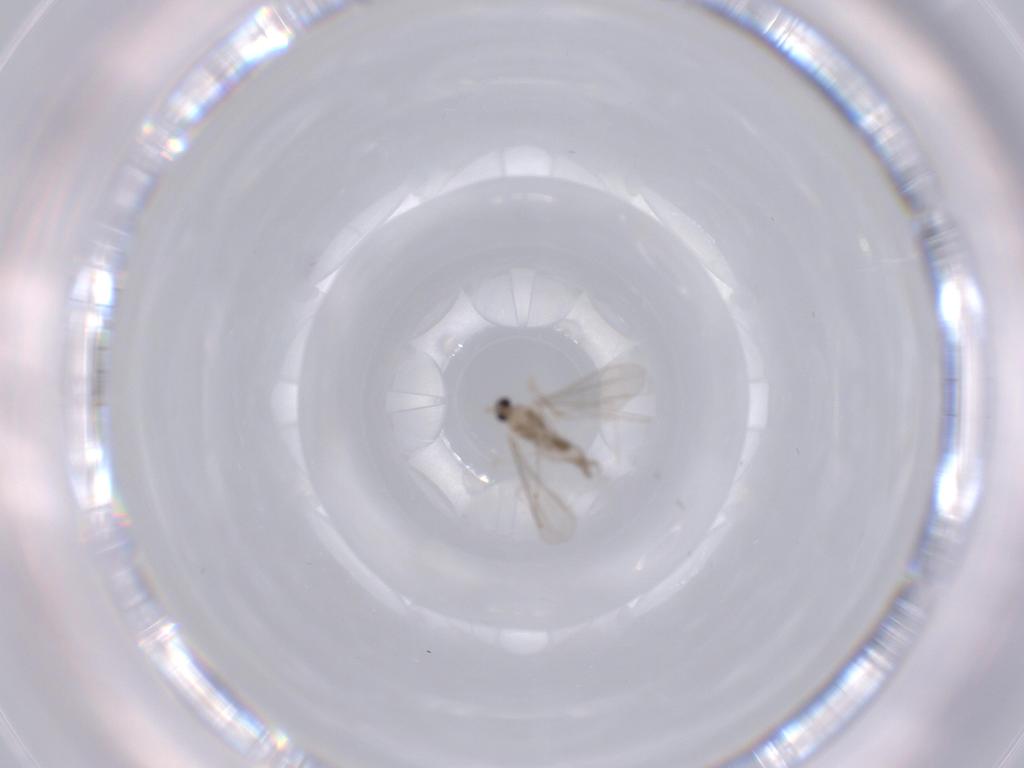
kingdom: Animalia
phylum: Arthropoda
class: Insecta
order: Diptera
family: Cecidomyiidae
